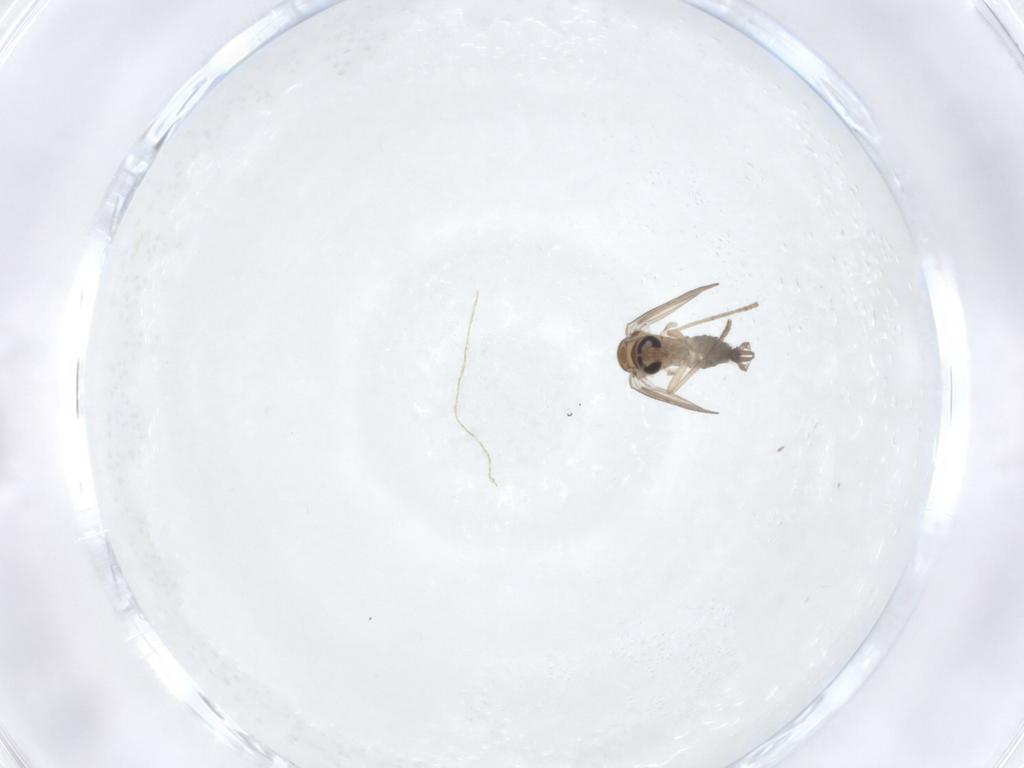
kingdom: Animalia
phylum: Arthropoda
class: Insecta
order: Diptera
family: Psychodidae
